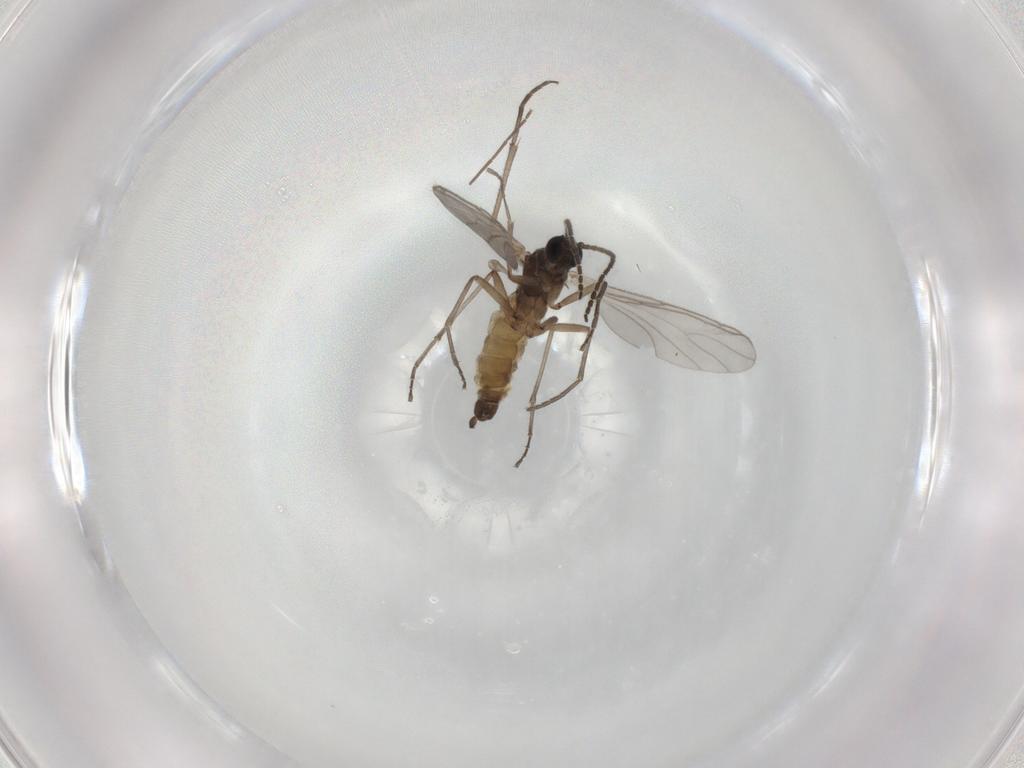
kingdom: Animalia
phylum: Arthropoda
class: Insecta
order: Diptera
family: Sciaridae
